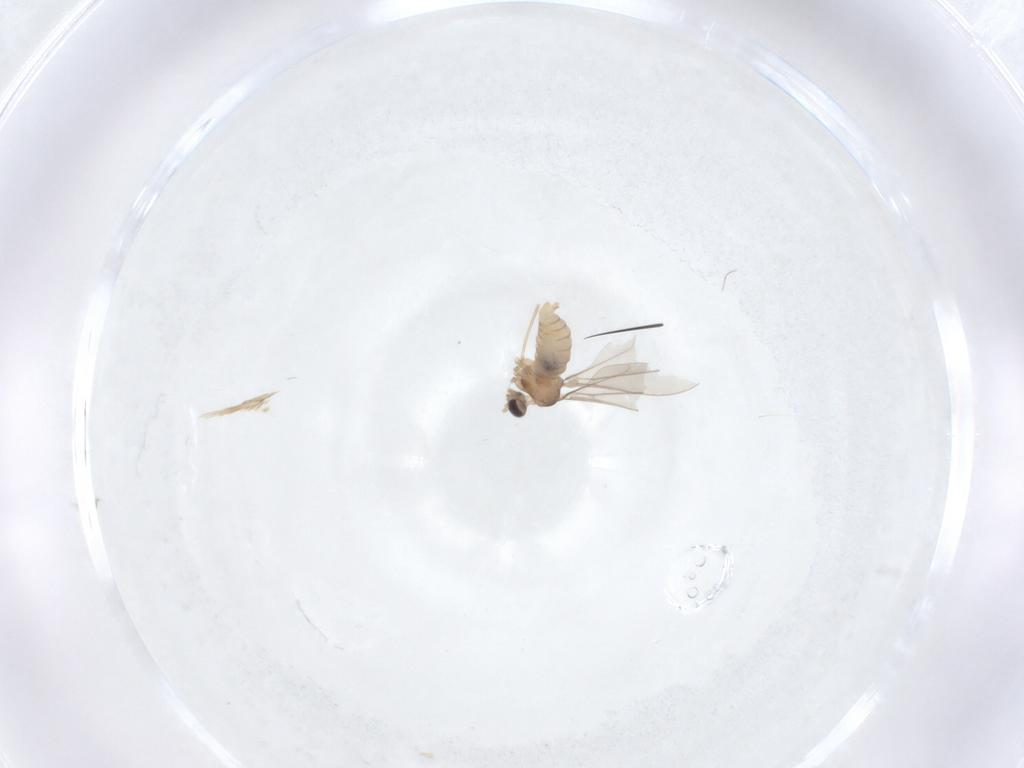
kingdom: Animalia
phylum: Arthropoda
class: Insecta
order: Diptera
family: Cecidomyiidae
